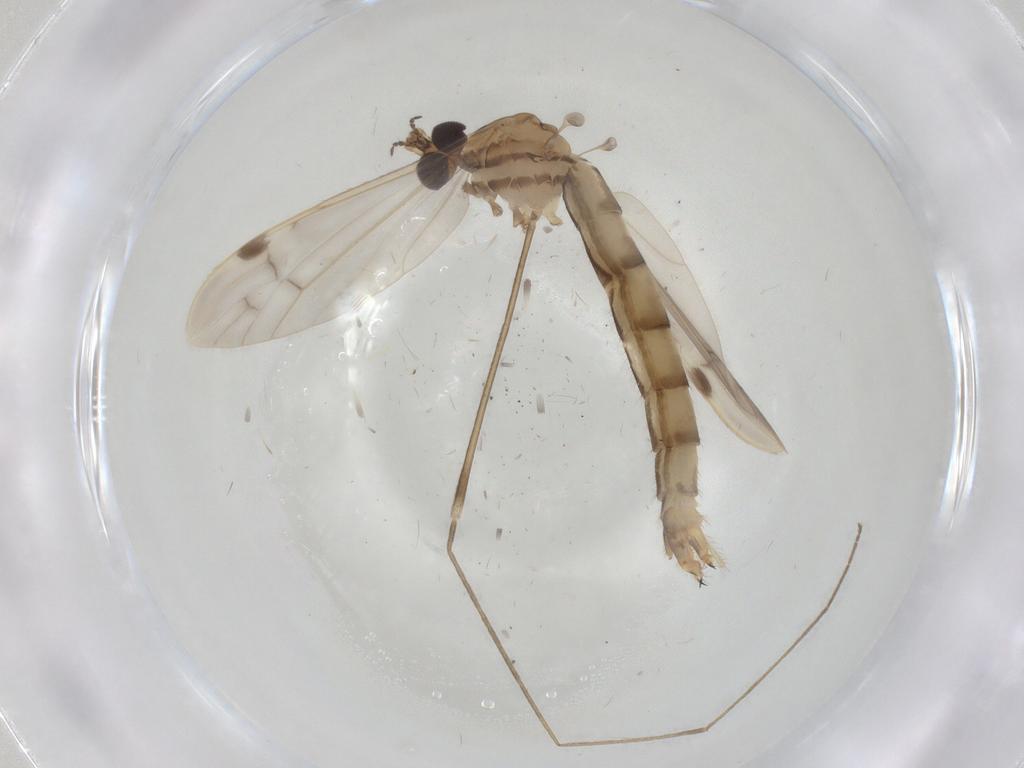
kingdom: Animalia
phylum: Arthropoda
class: Insecta
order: Diptera
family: Limoniidae
